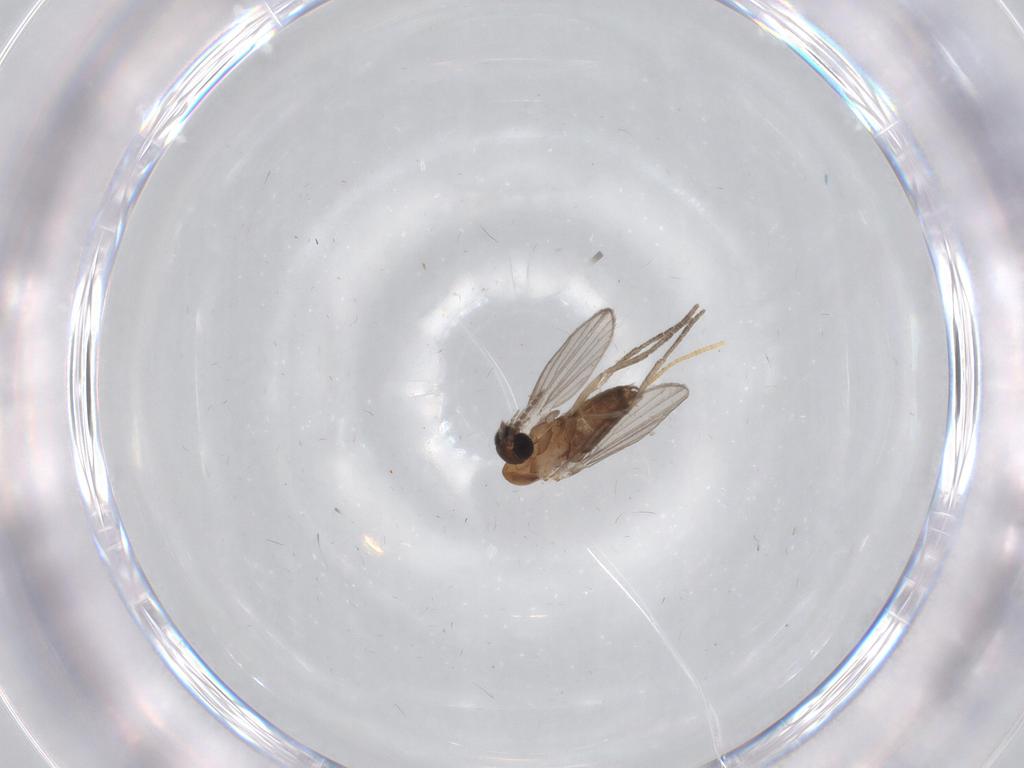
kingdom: Animalia
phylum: Arthropoda
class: Insecta
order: Diptera
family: Psychodidae
